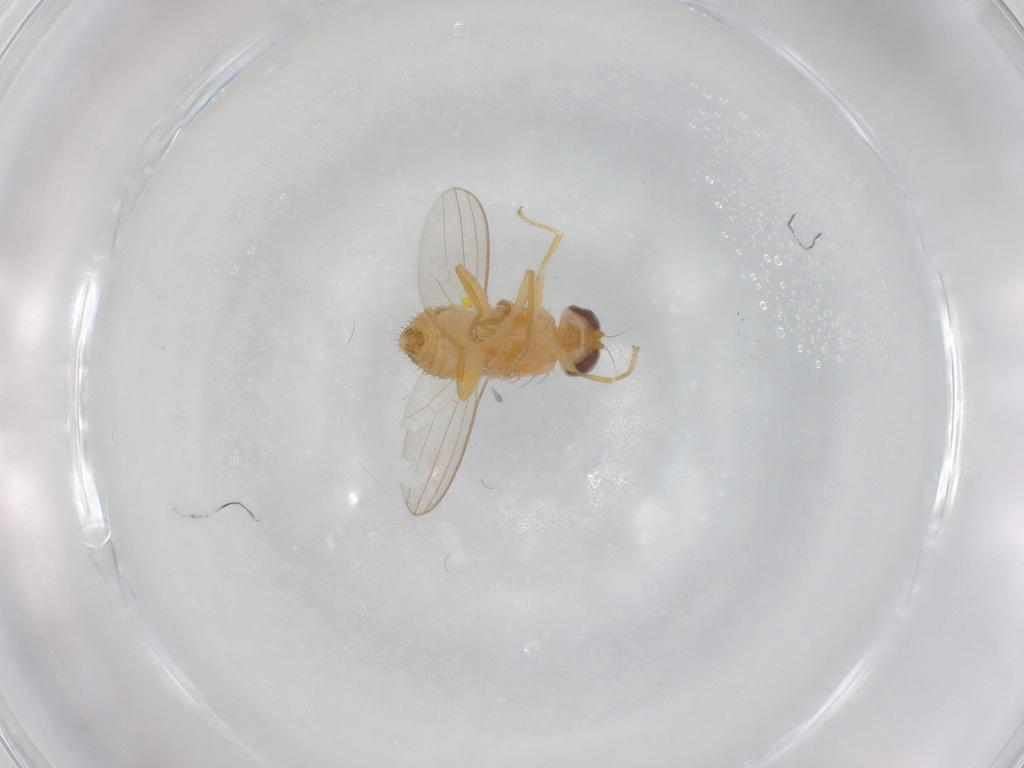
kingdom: Animalia
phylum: Arthropoda
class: Insecta
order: Diptera
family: Chyromyidae
